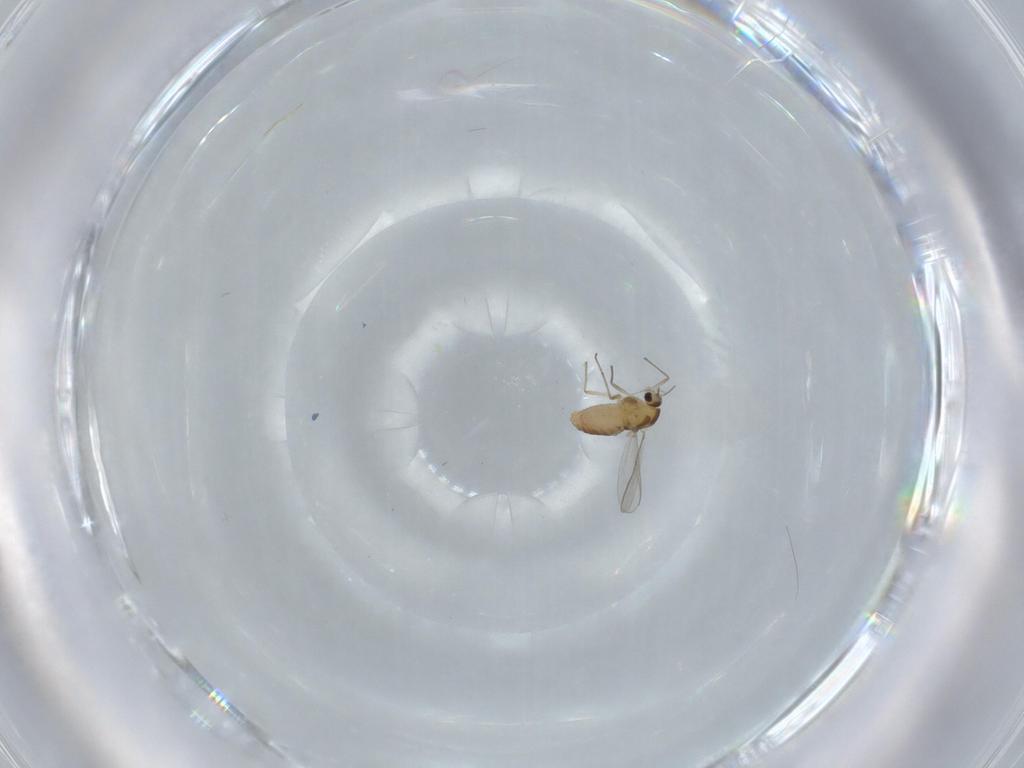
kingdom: Animalia
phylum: Arthropoda
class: Insecta
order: Diptera
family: Chironomidae
